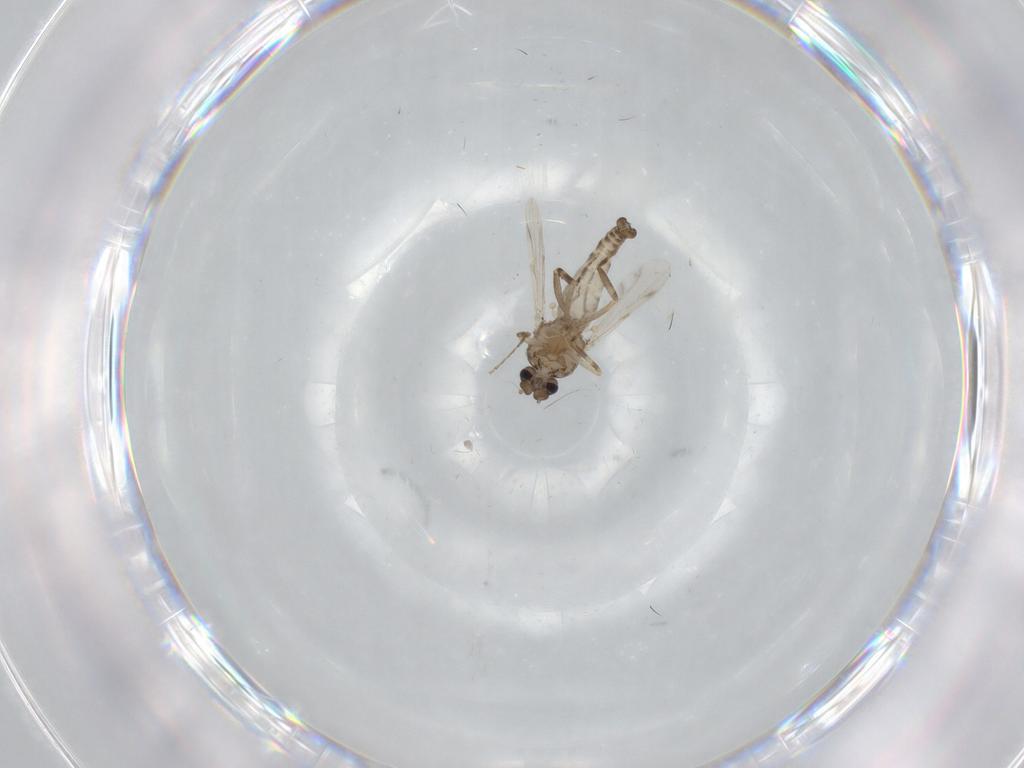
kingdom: Animalia
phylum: Arthropoda
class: Insecta
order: Diptera
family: Ceratopogonidae
